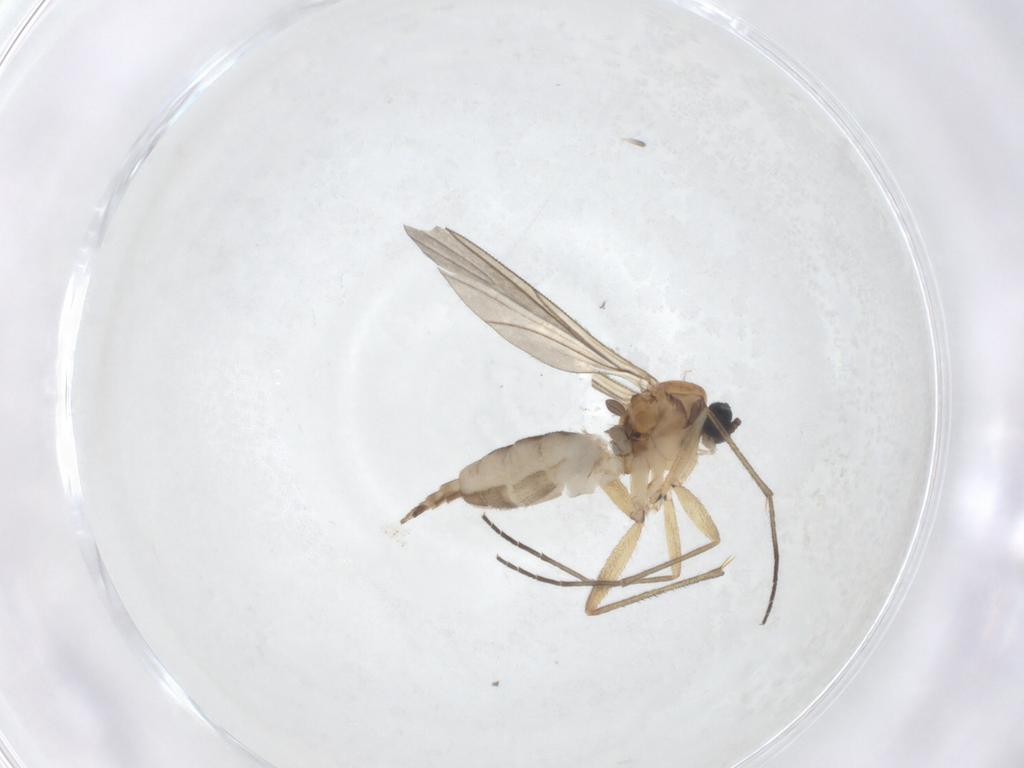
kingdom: Animalia
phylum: Arthropoda
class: Insecta
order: Diptera
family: Sciaridae
